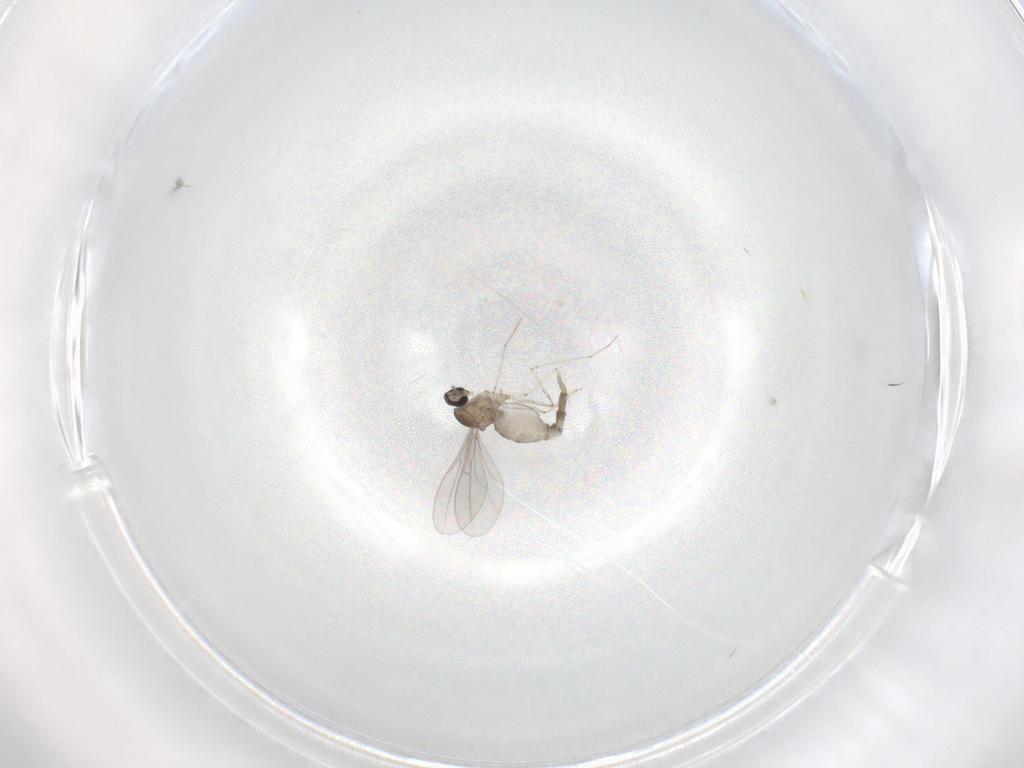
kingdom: Animalia
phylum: Arthropoda
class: Insecta
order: Diptera
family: Cecidomyiidae
